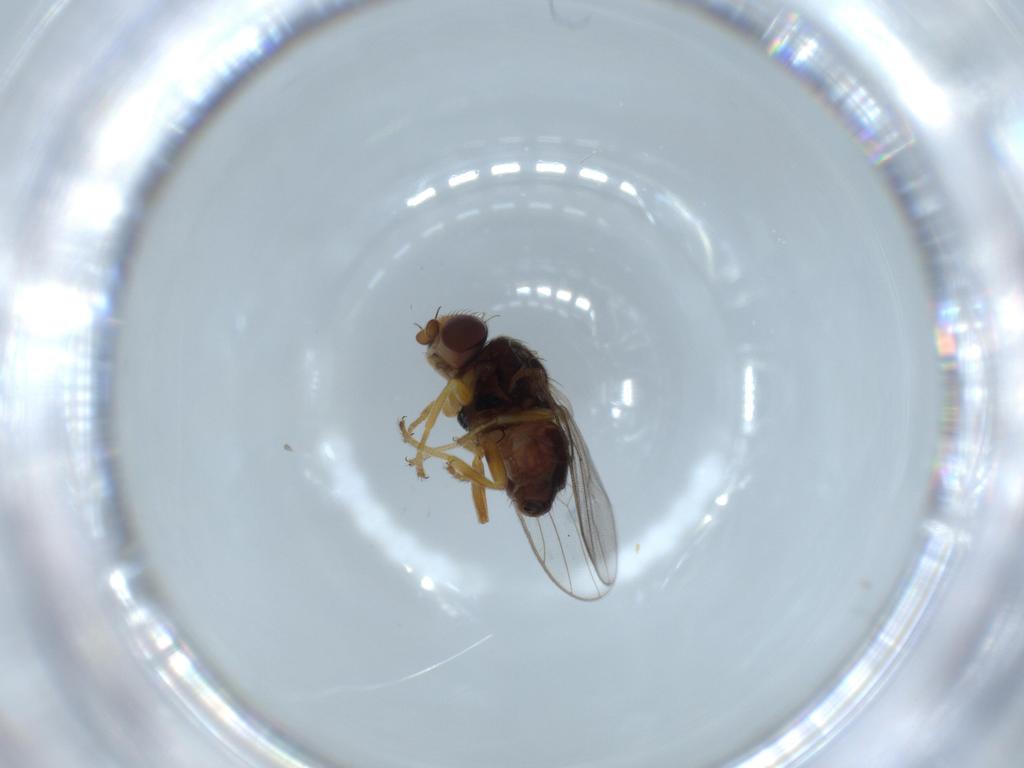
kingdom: Animalia
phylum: Arthropoda
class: Insecta
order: Diptera
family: Chloropidae
